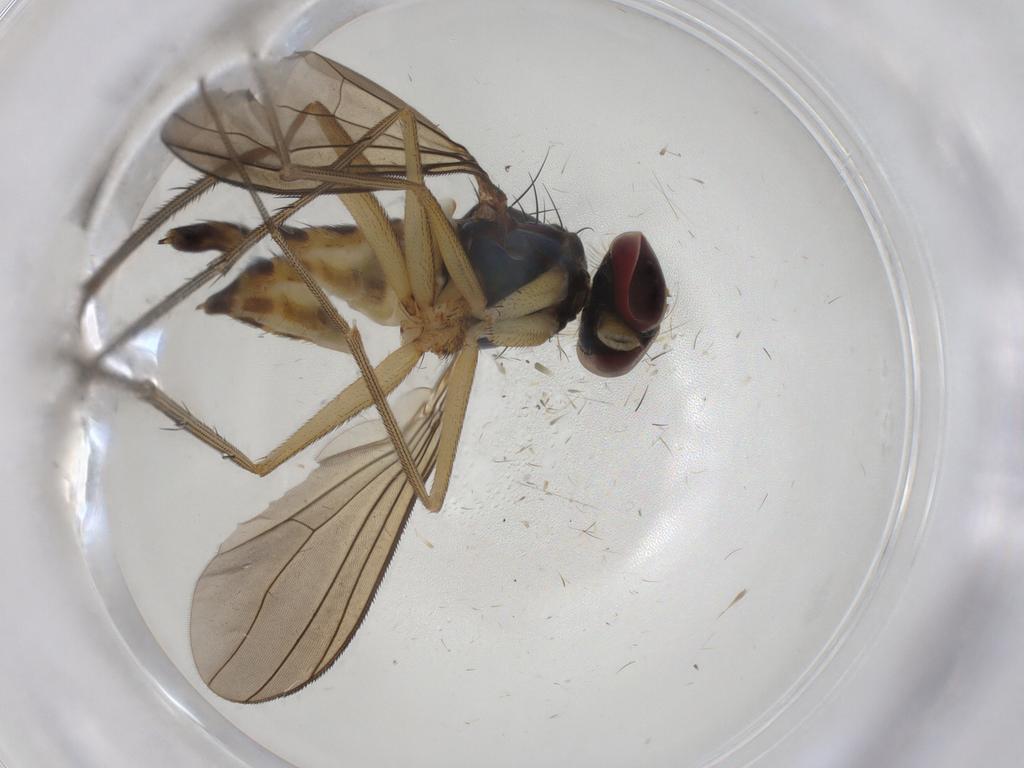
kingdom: Animalia
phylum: Arthropoda
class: Insecta
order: Diptera
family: Dolichopodidae
